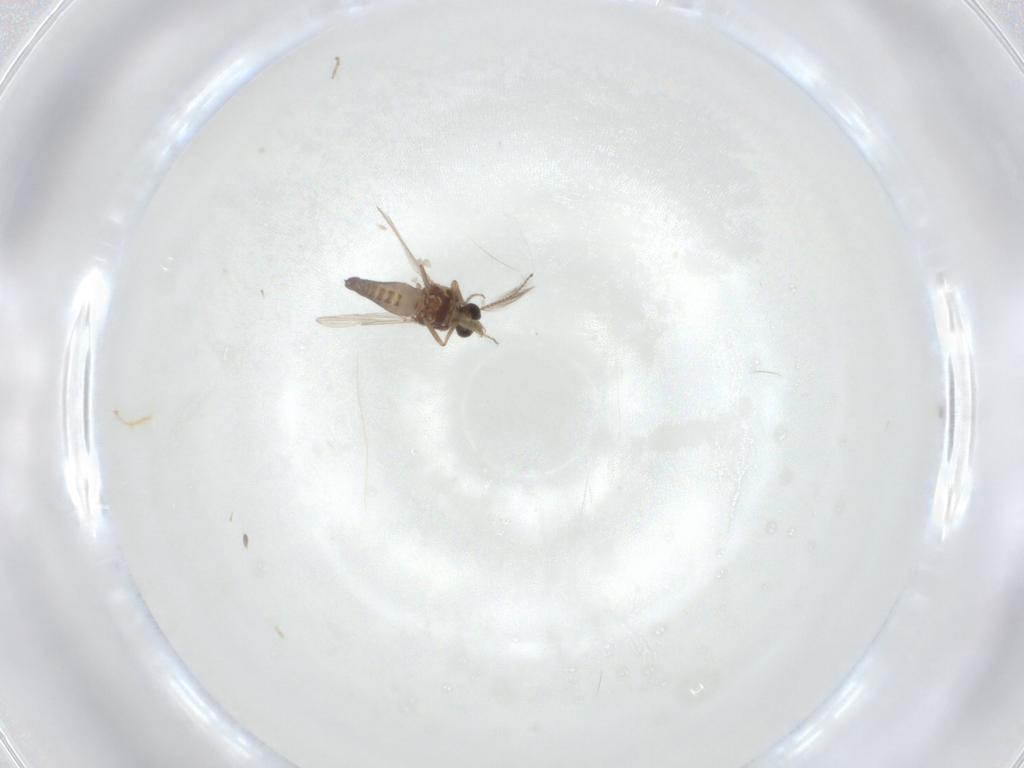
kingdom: Animalia
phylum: Arthropoda
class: Insecta
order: Diptera
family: Ceratopogonidae
